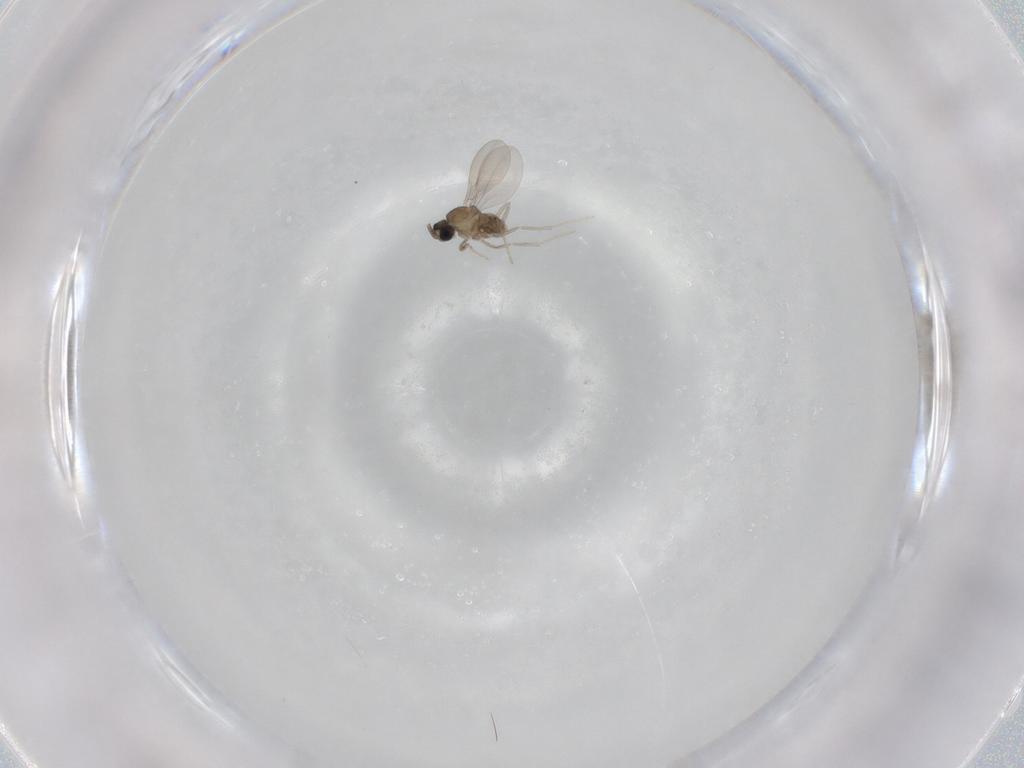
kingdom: Animalia
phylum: Arthropoda
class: Insecta
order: Diptera
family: Cecidomyiidae
